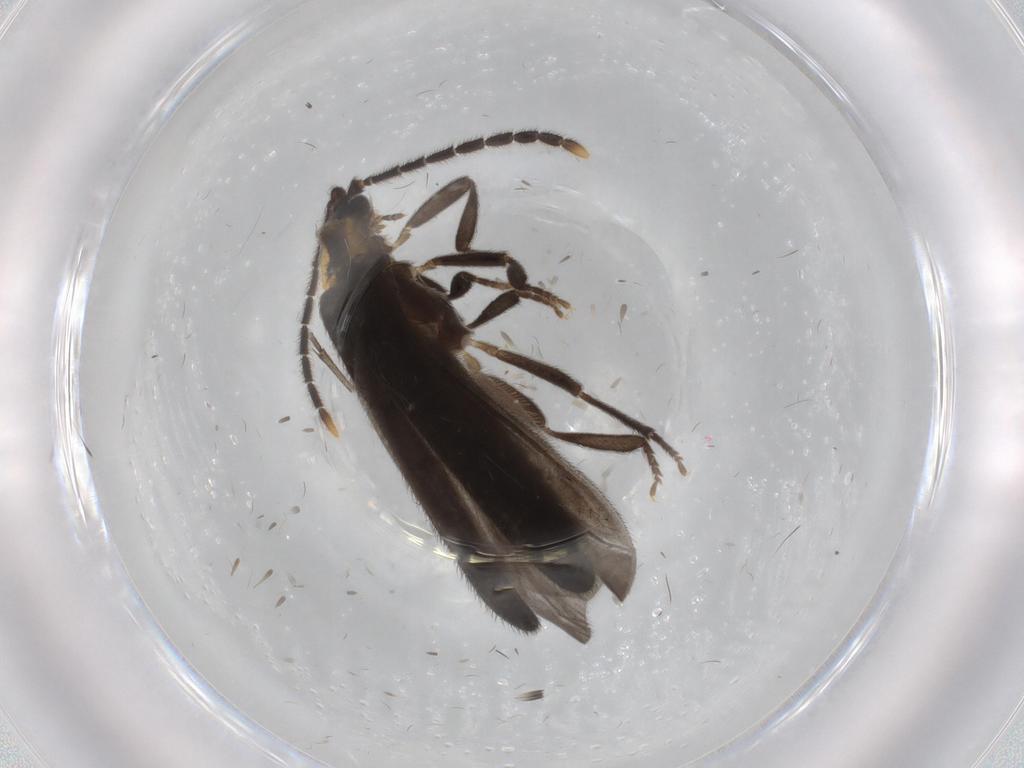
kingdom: Animalia
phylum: Arthropoda
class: Insecta
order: Coleoptera
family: Lycidae
